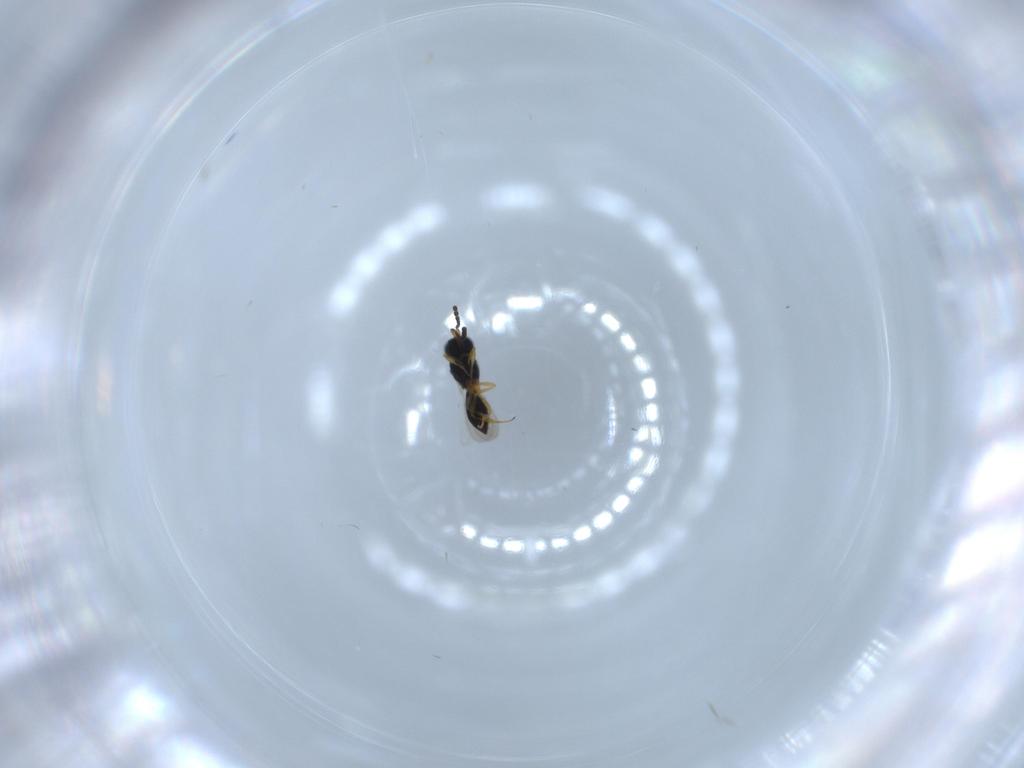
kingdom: Animalia
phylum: Arthropoda
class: Insecta
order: Hymenoptera
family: Scelionidae
